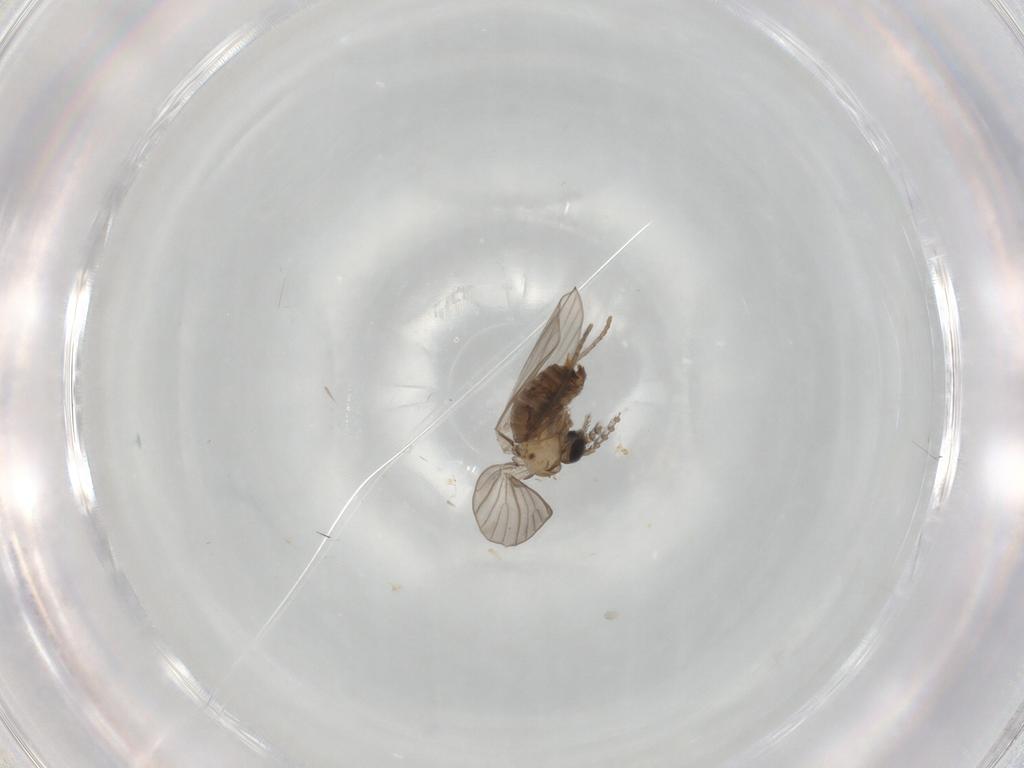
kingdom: Animalia
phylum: Arthropoda
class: Insecta
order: Diptera
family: Psychodidae
